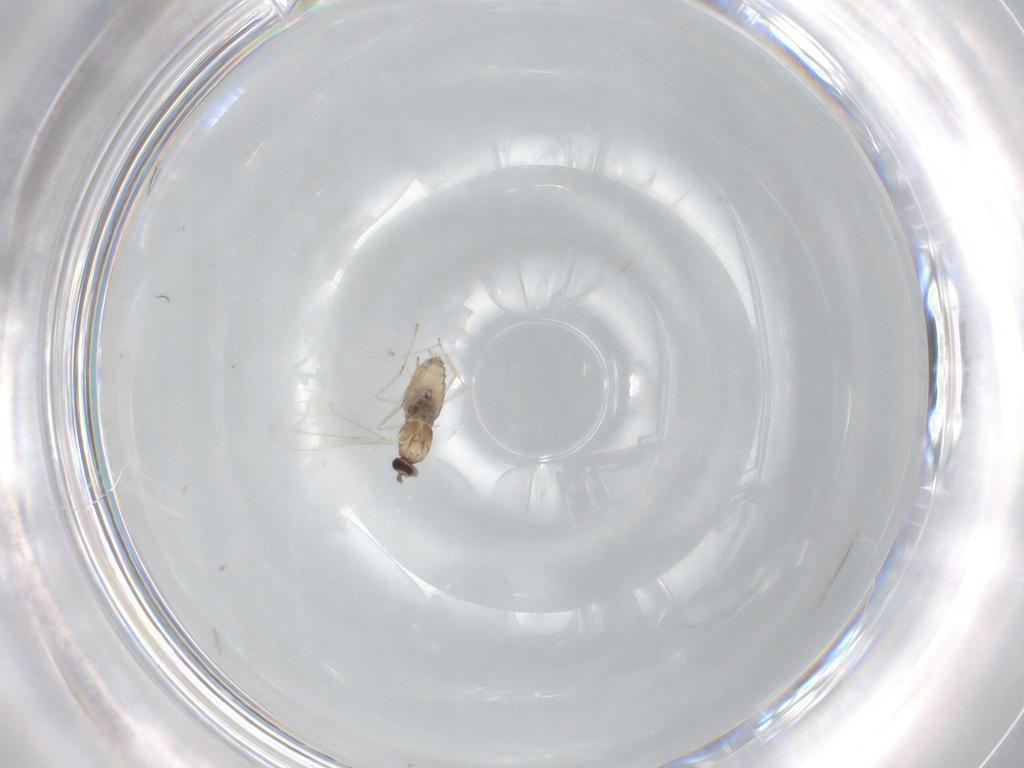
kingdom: Animalia
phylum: Arthropoda
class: Insecta
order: Diptera
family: Cecidomyiidae
